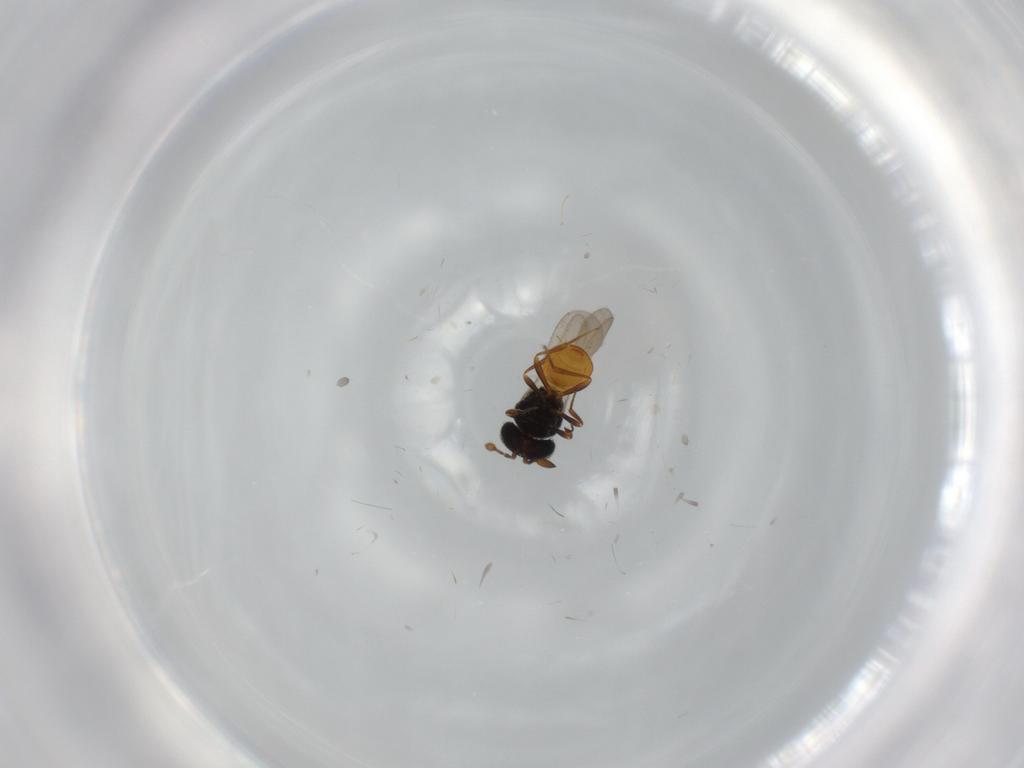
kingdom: Animalia
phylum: Arthropoda
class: Insecta
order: Hymenoptera
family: Scelionidae
